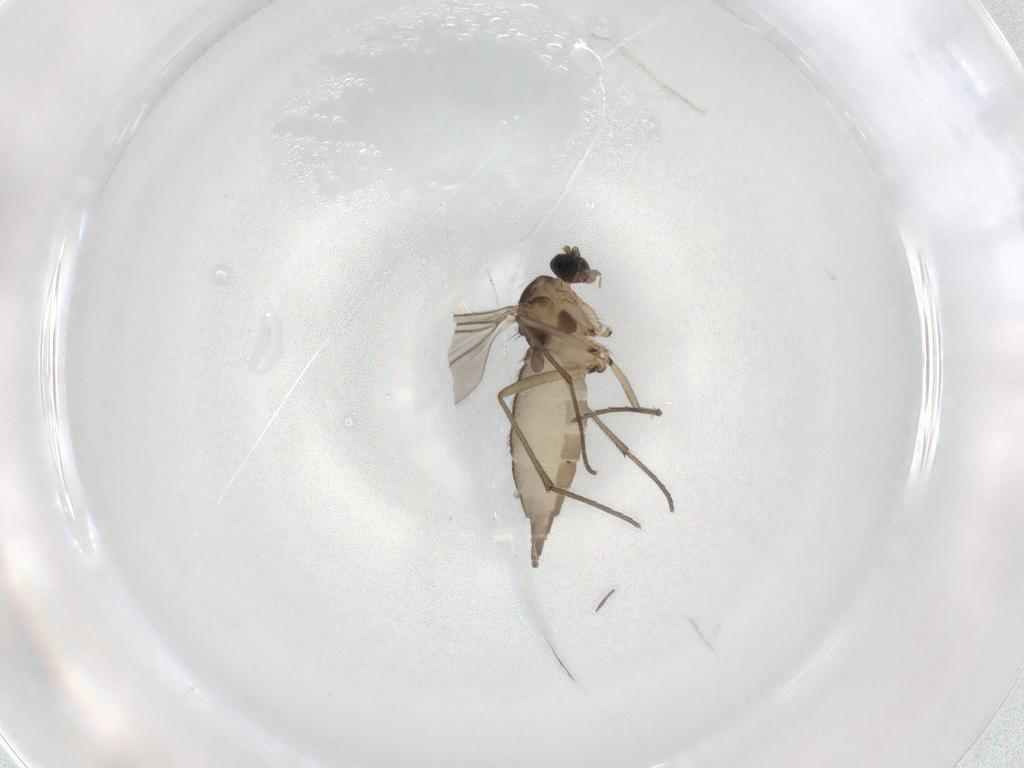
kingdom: Animalia
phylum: Arthropoda
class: Insecta
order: Diptera
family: Sciaridae
